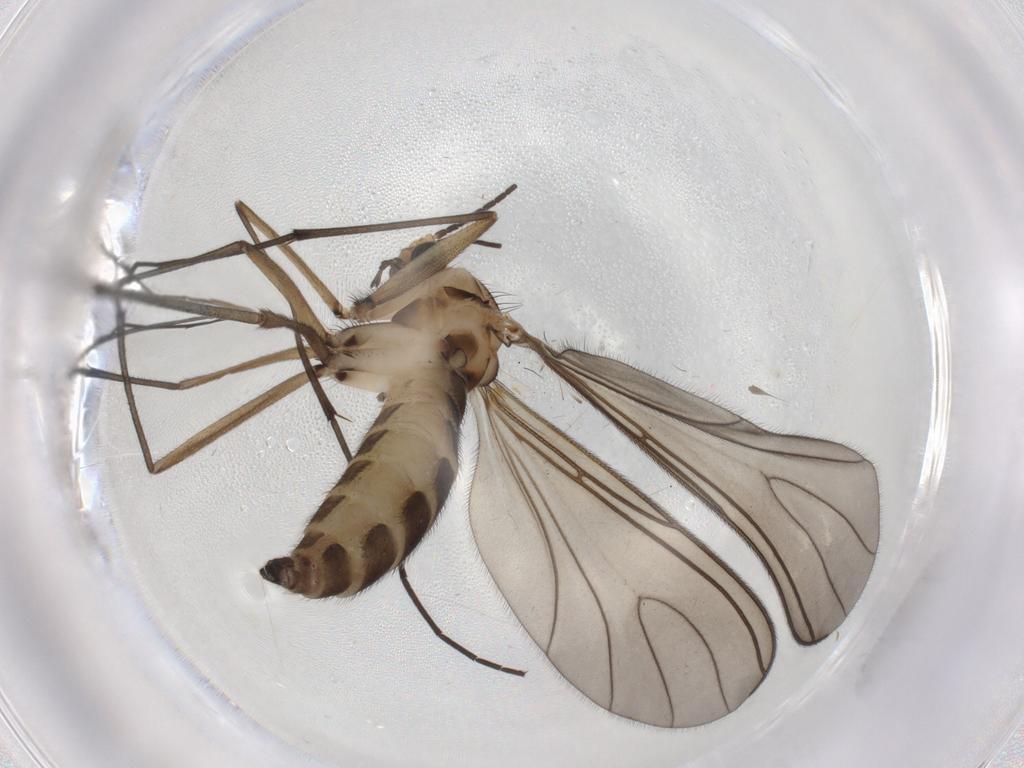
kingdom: Animalia
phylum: Arthropoda
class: Insecta
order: Diptera
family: Sciaridae
